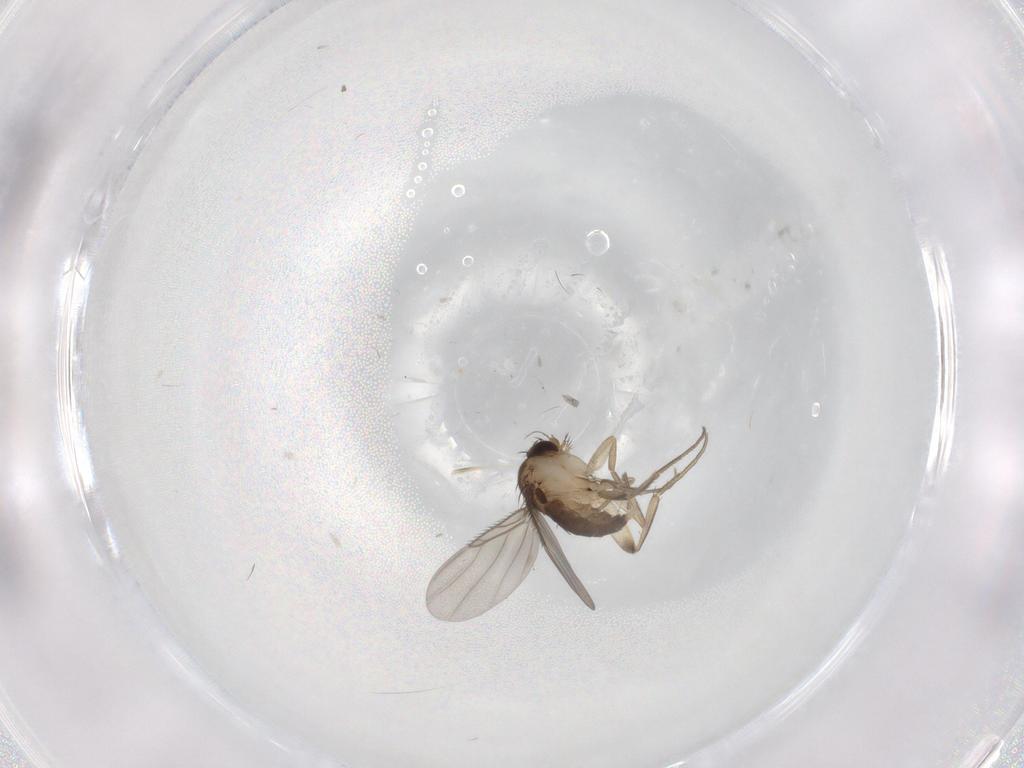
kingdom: Animalia
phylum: Arthropoda
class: Insecta
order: Diptera
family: Phoridae
